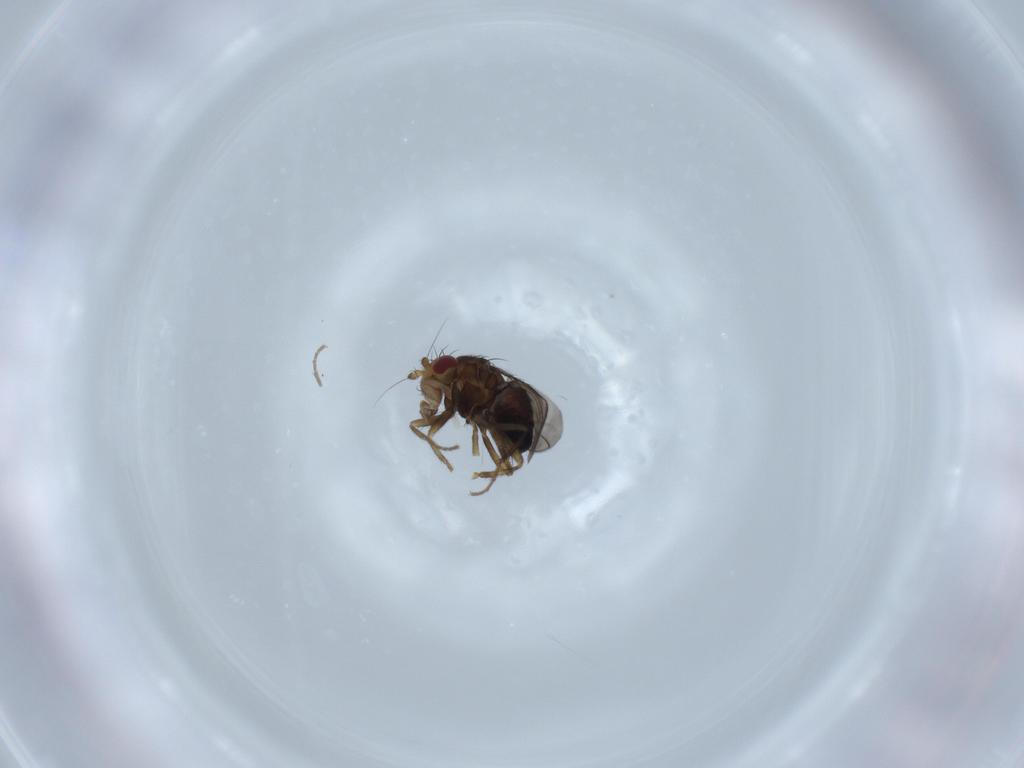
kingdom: Animalia
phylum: Arthropoda
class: Insecta
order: Diptera
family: Sphaeroceridae
